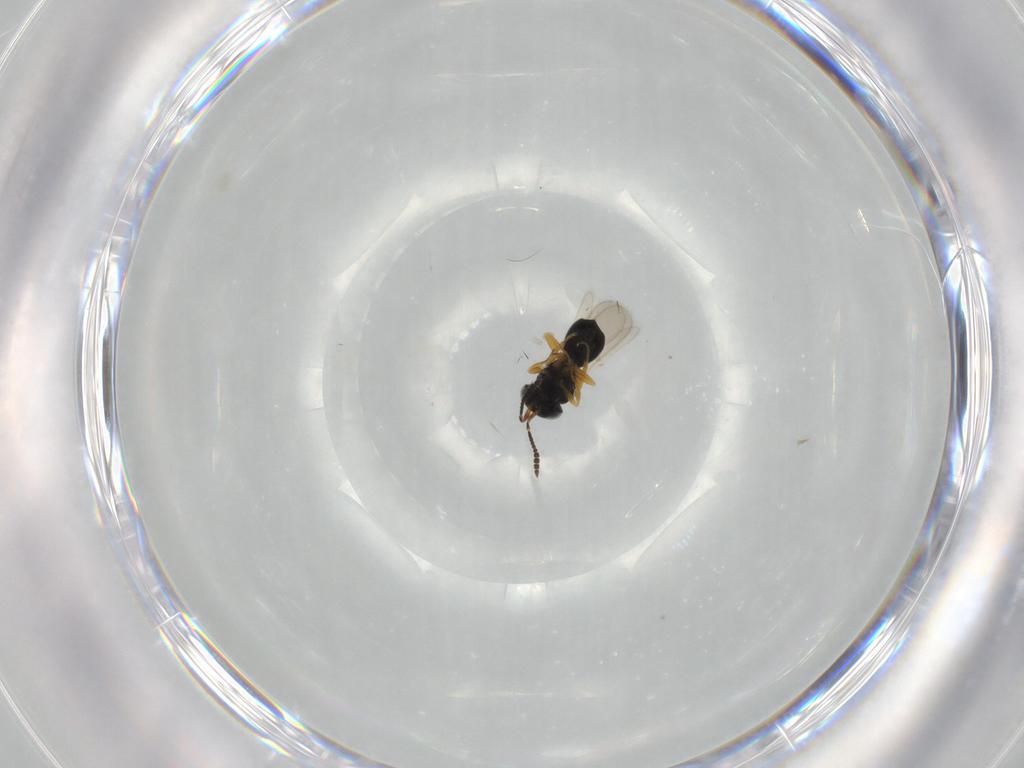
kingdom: Animalia
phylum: Arthropoda
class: Insecta
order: Hymenoptera
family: Scelionidae
